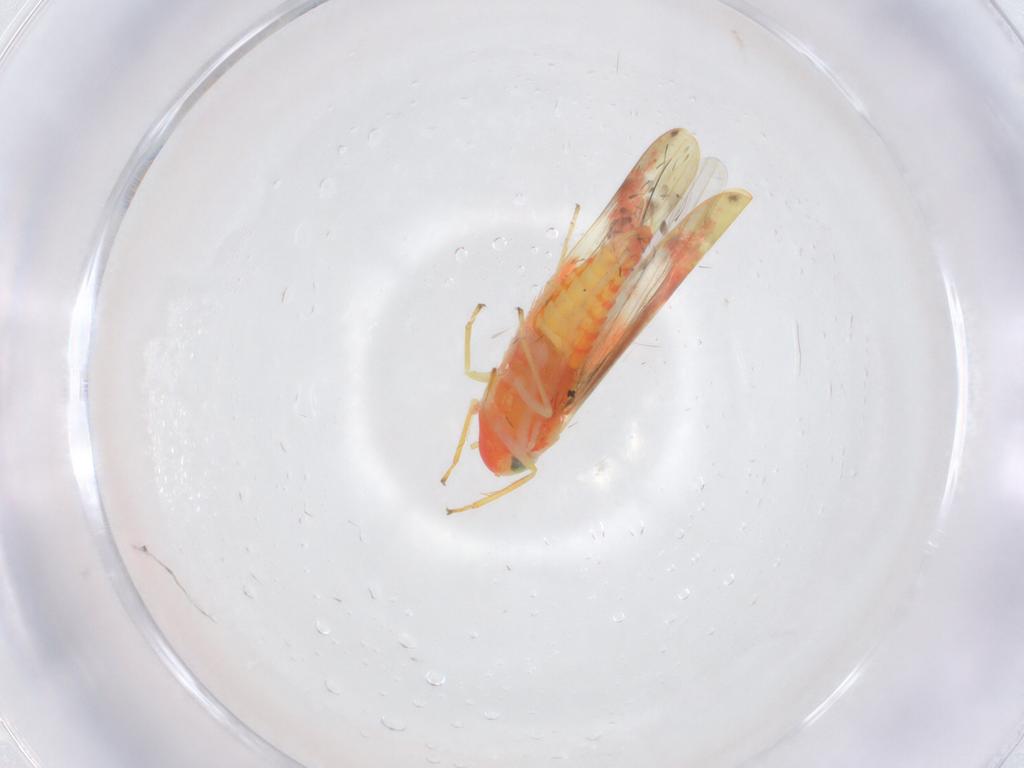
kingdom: Animalia
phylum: Arthropoda
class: Insecta
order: Hemiptera
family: Cicadellidae
